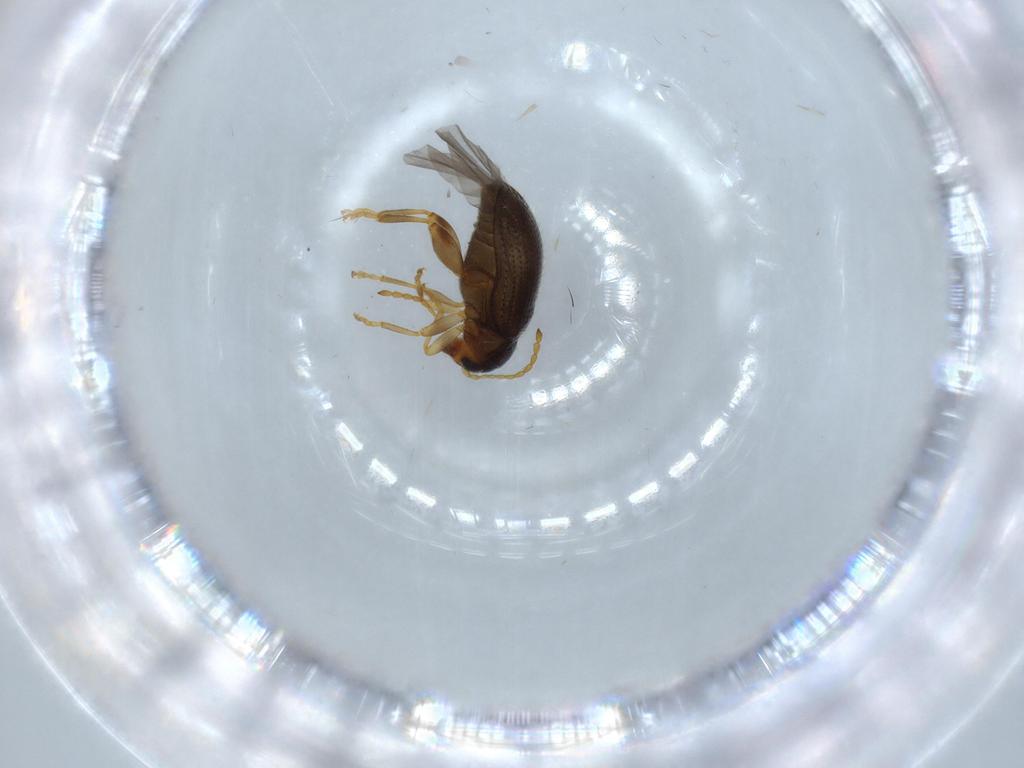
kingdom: Animalia
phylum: Arthropoda
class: Insecta
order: Coleoptera
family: Chrysomelidae
